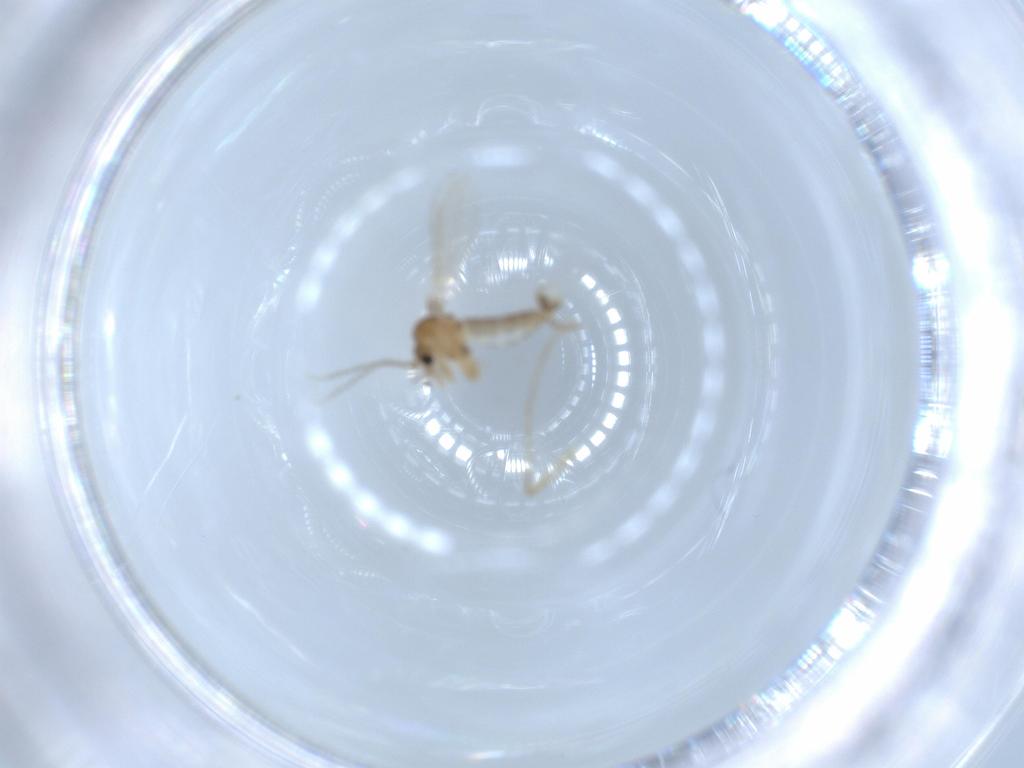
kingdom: Animalia
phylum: Arthropoda
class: Insecta
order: Diptera
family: Psychodidae
